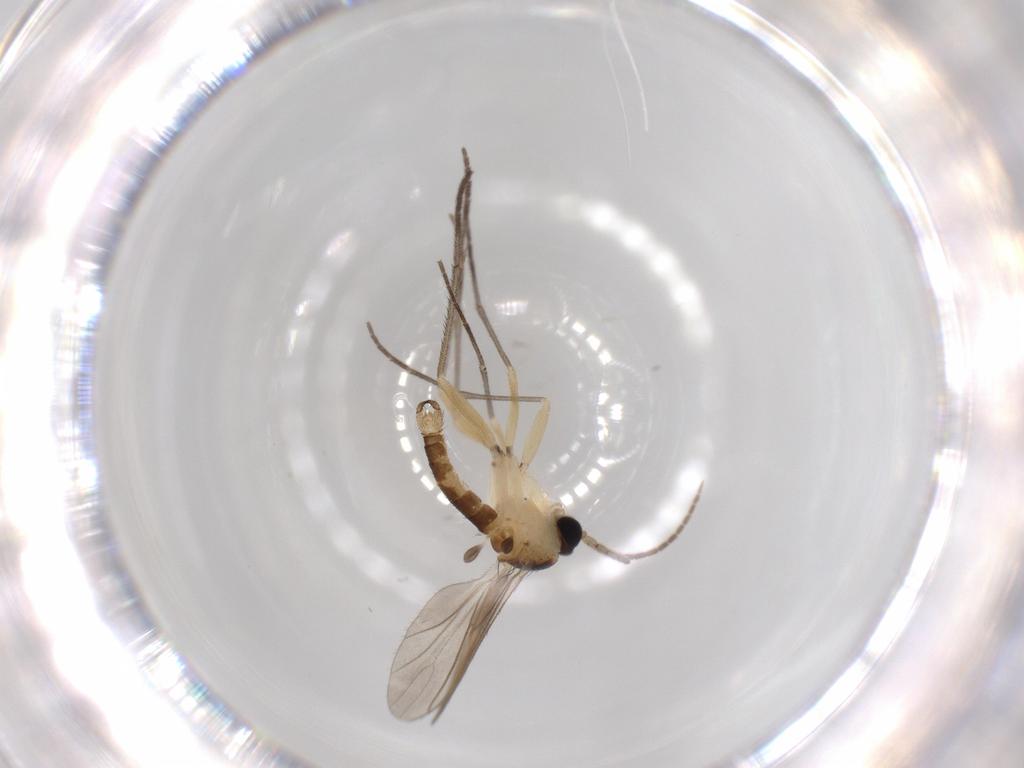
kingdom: Animalia
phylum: Arthropoda
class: Insecta
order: Diptera
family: Sciaridae
